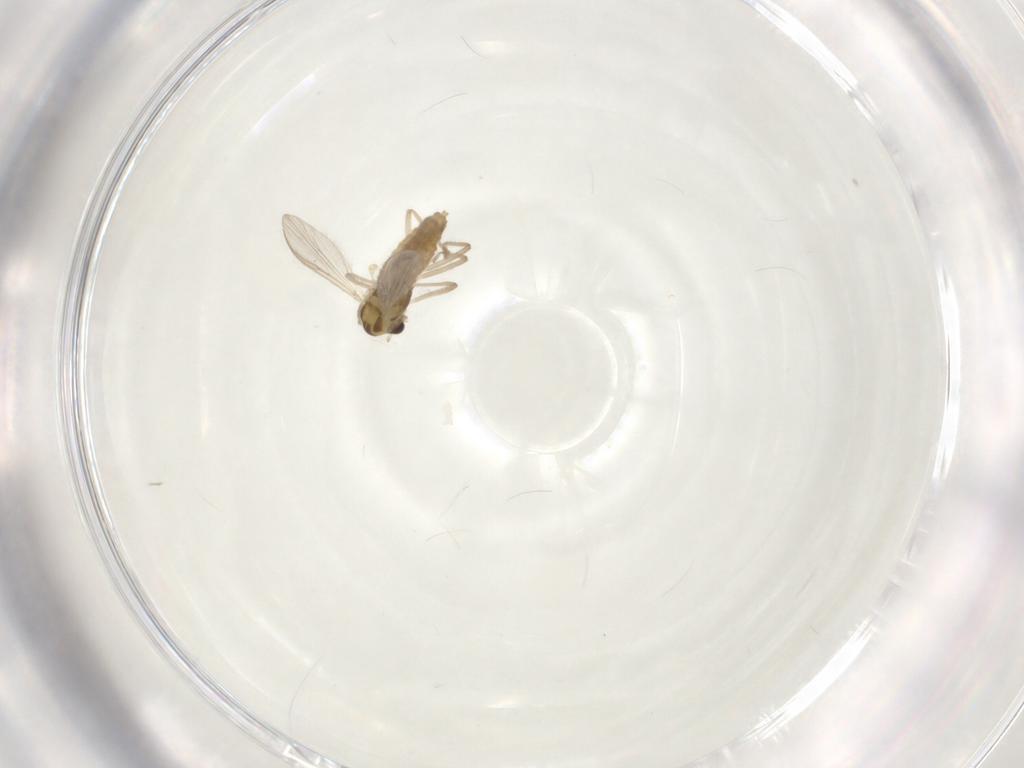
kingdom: Animalia
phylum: Arthropoda
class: Insecta
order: Diptera
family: Chironomidae
